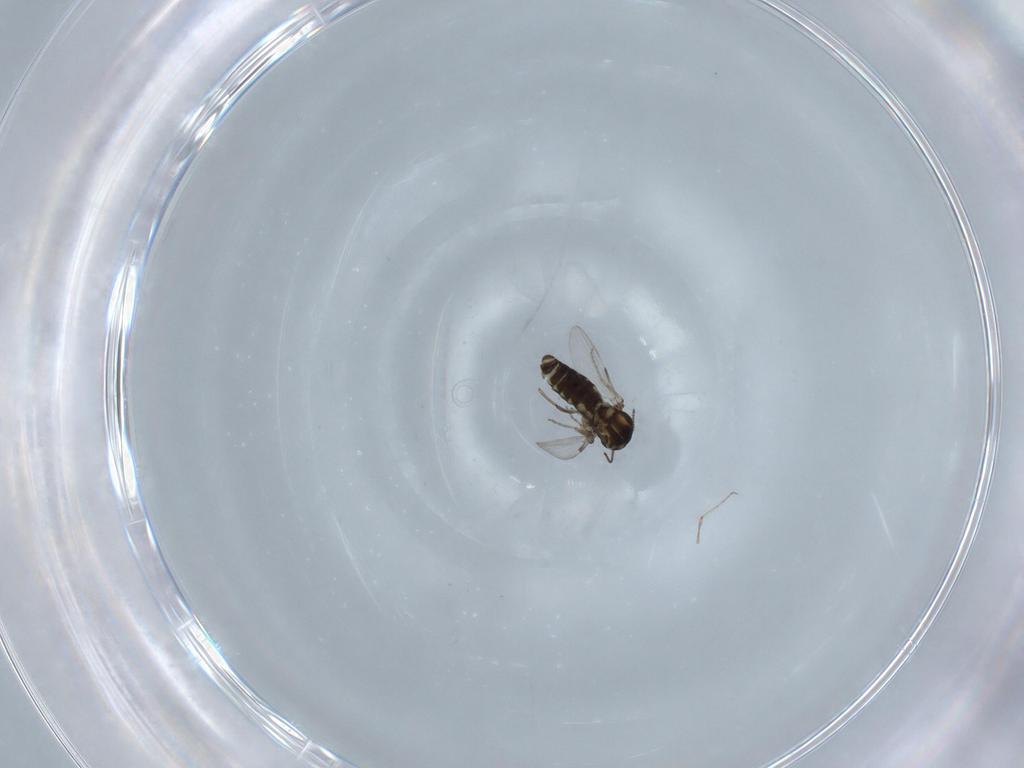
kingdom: Animalia
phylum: Arthropoda
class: Insecta
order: Diptera
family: Ceratopogonidae
